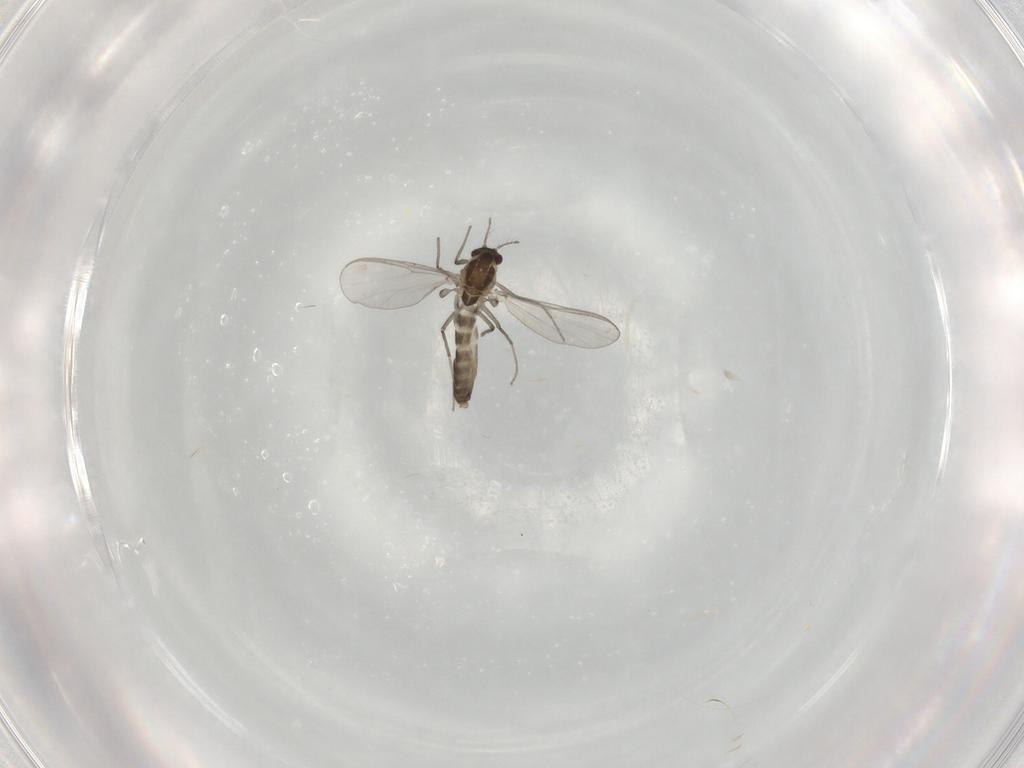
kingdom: Animalia
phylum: Arthropoda
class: Insecta
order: Diptera
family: Chironomidae
